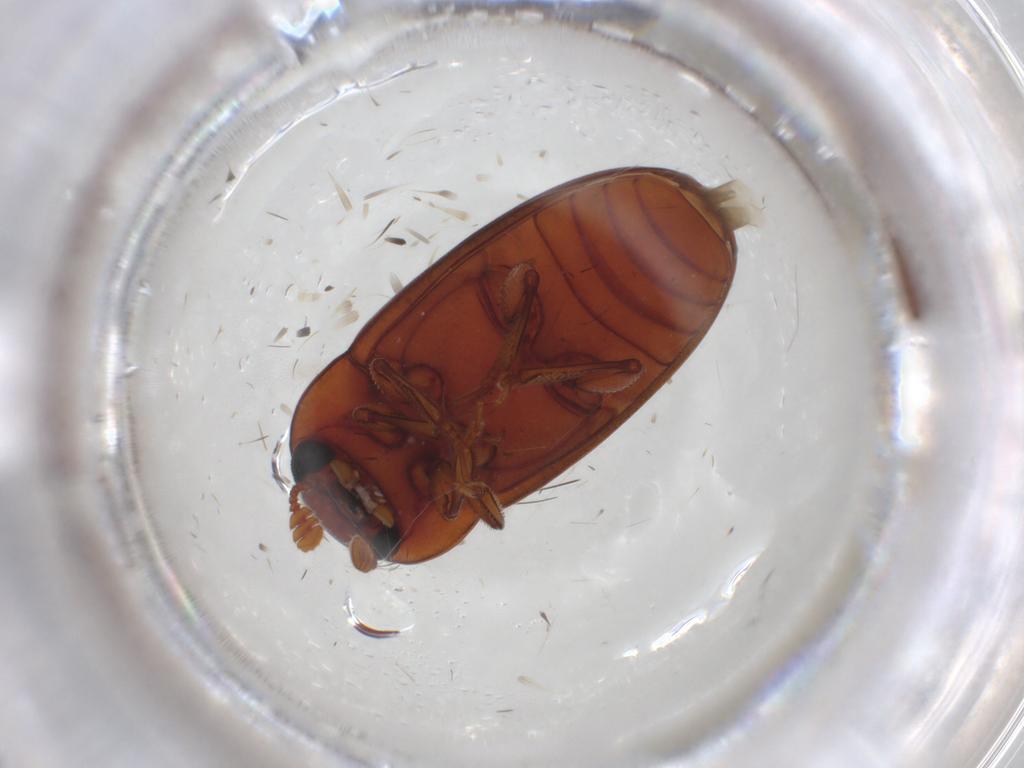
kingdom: Animalia
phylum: Arthropoda
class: Insecta
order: Coleoptera
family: Erotylidae
